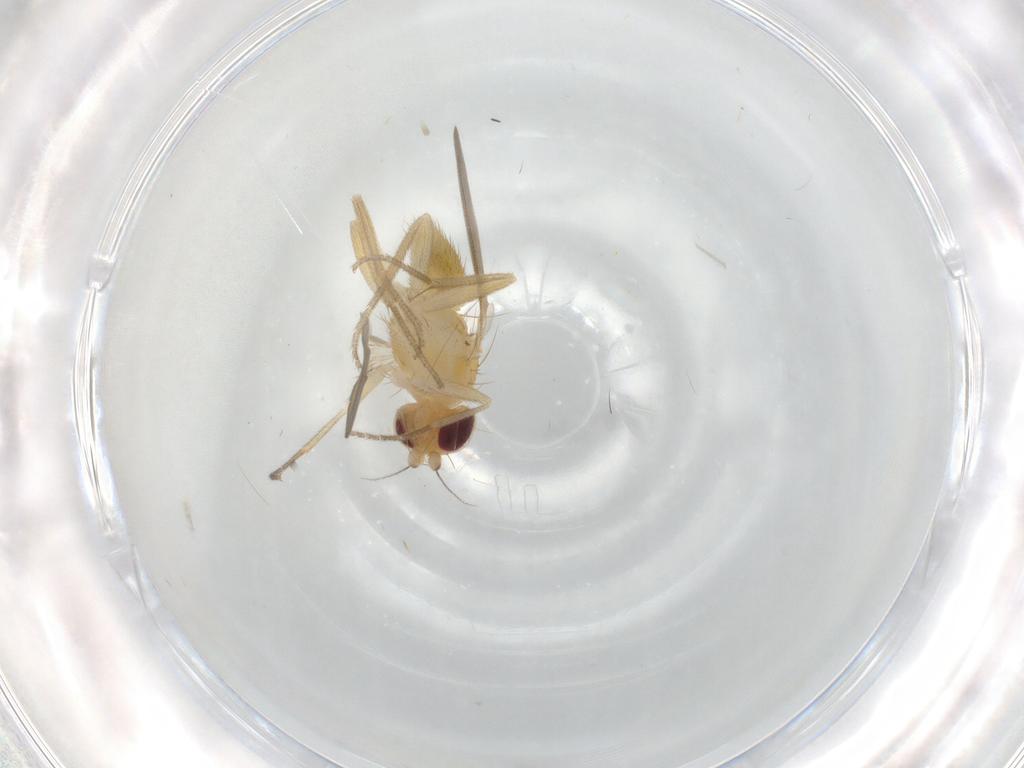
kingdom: Animalia
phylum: Arthropoda
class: Insecta
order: Diptera
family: Clusiidae
